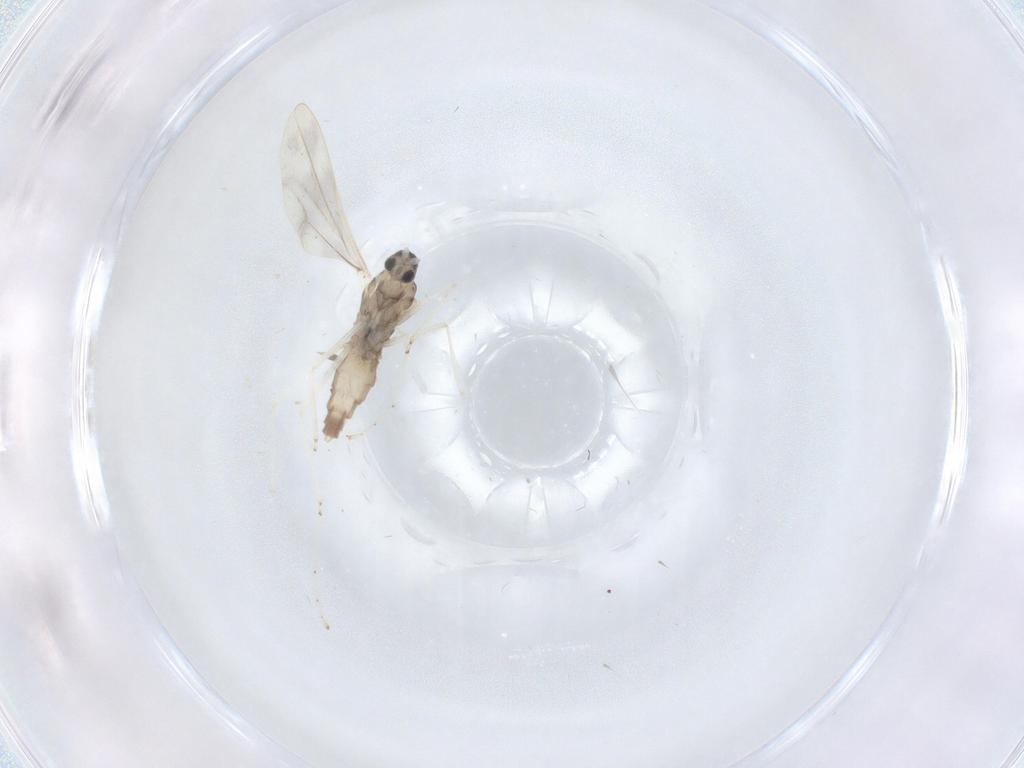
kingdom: Animalia
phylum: Arthropoda
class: Insecta
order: Diptera
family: Cecidomyiidae
